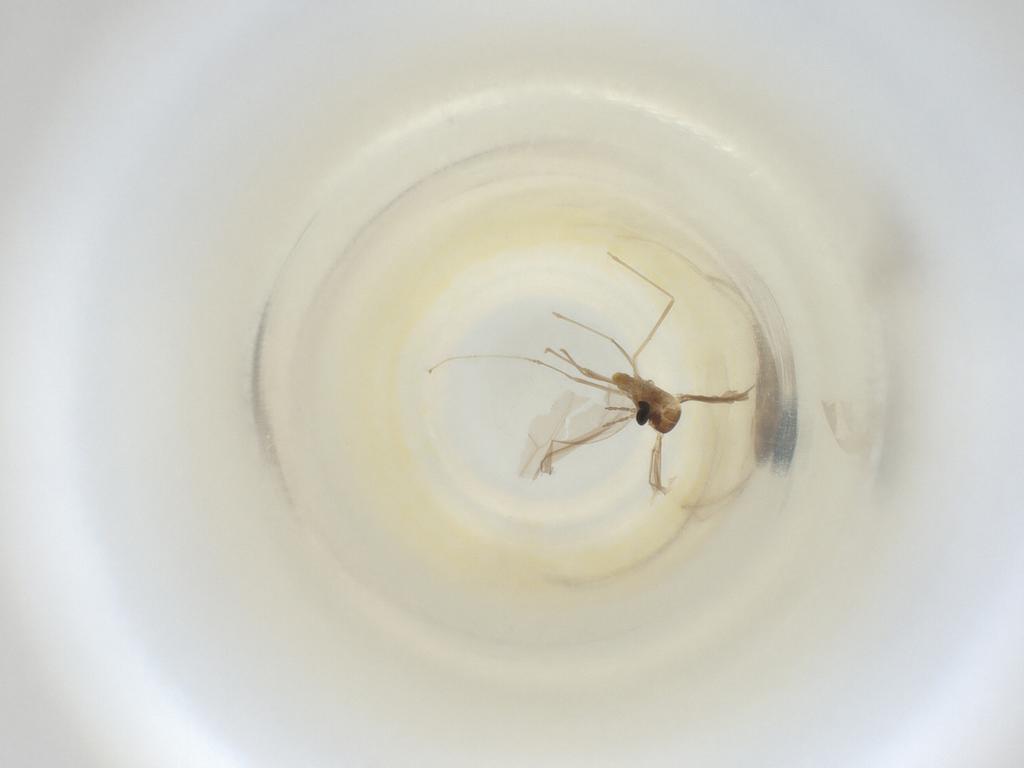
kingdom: Animalia
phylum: Arthropoda
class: Insecta
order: Diptera
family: Cecidomyiidae
